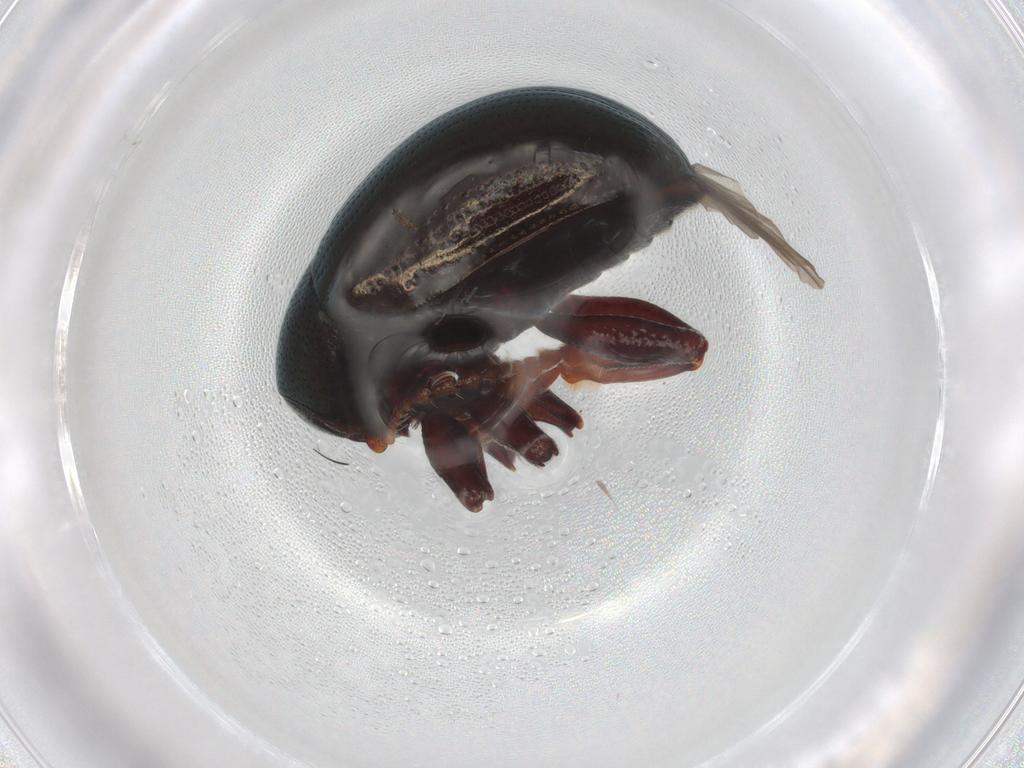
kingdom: Animalia
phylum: Arthropoda
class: Insecta
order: Coleoptera
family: Chrysomelidae
